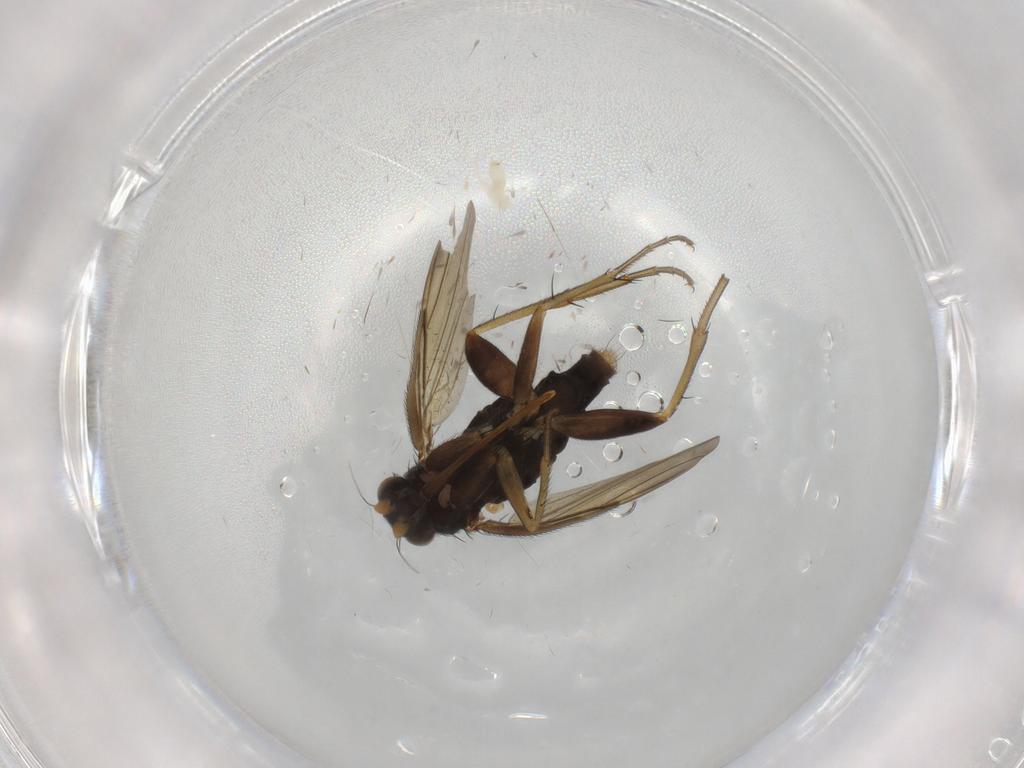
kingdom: Animalia
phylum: Arthropoda
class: Insecta
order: Diptera
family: Phoridae
